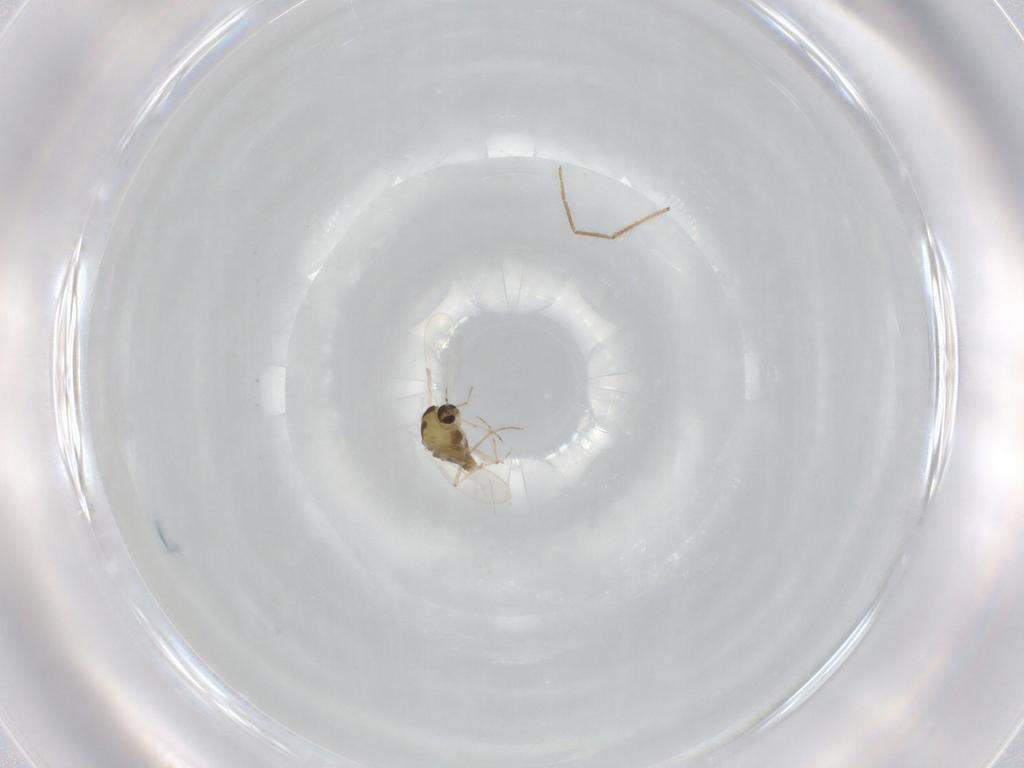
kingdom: Animalia
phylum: Arthropoda
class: Insecta
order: Diptera
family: Chironomidae
